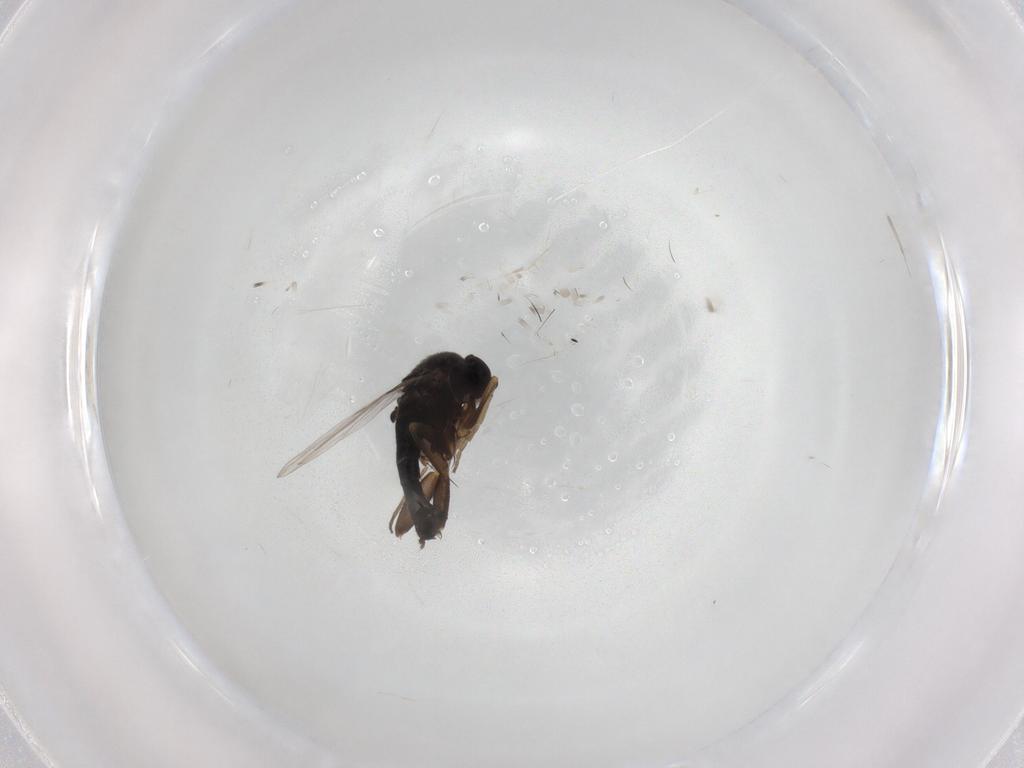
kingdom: Animalia
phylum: Arthropoda
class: Insecta
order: Diptera
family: Phoridae
